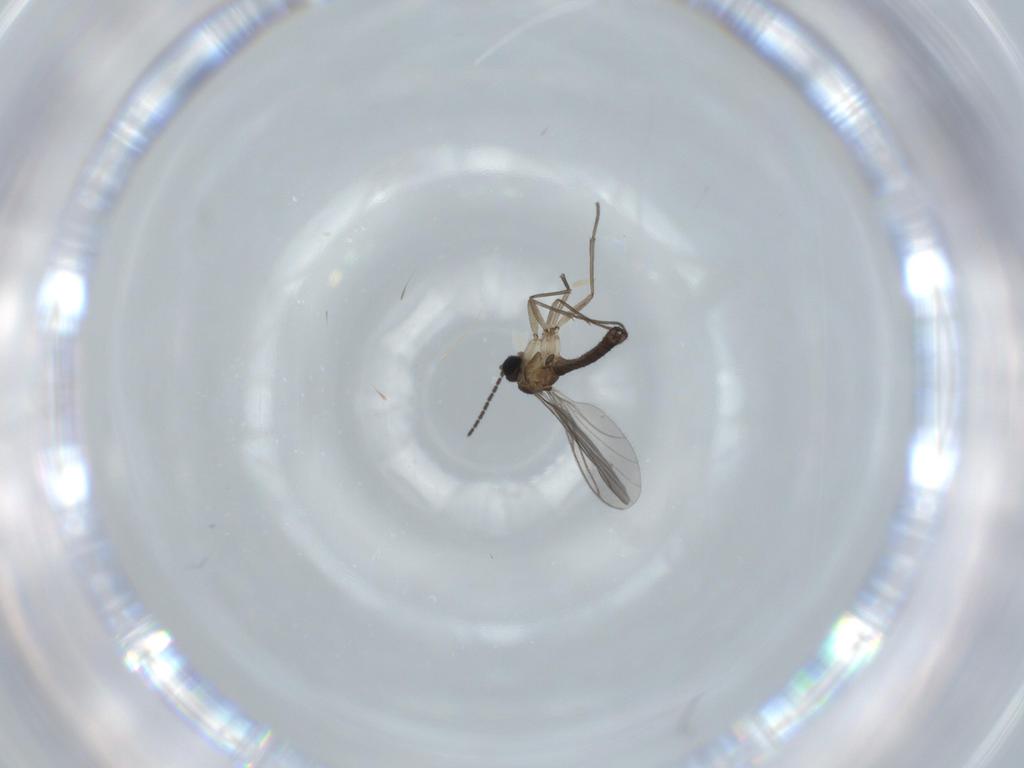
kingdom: Animalia
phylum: Arthropoda
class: Insecta
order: Diptera
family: Sciaridae
